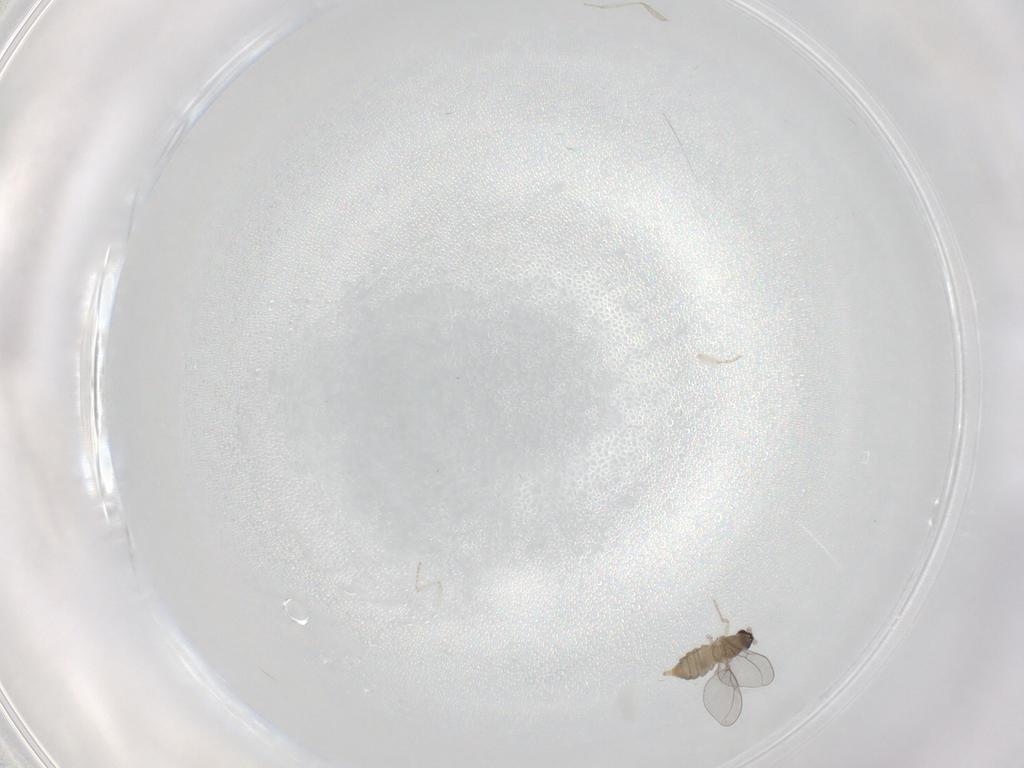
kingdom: Animalia
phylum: Arthropoda
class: Insecta
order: Diptera
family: Cecidomyiidae
